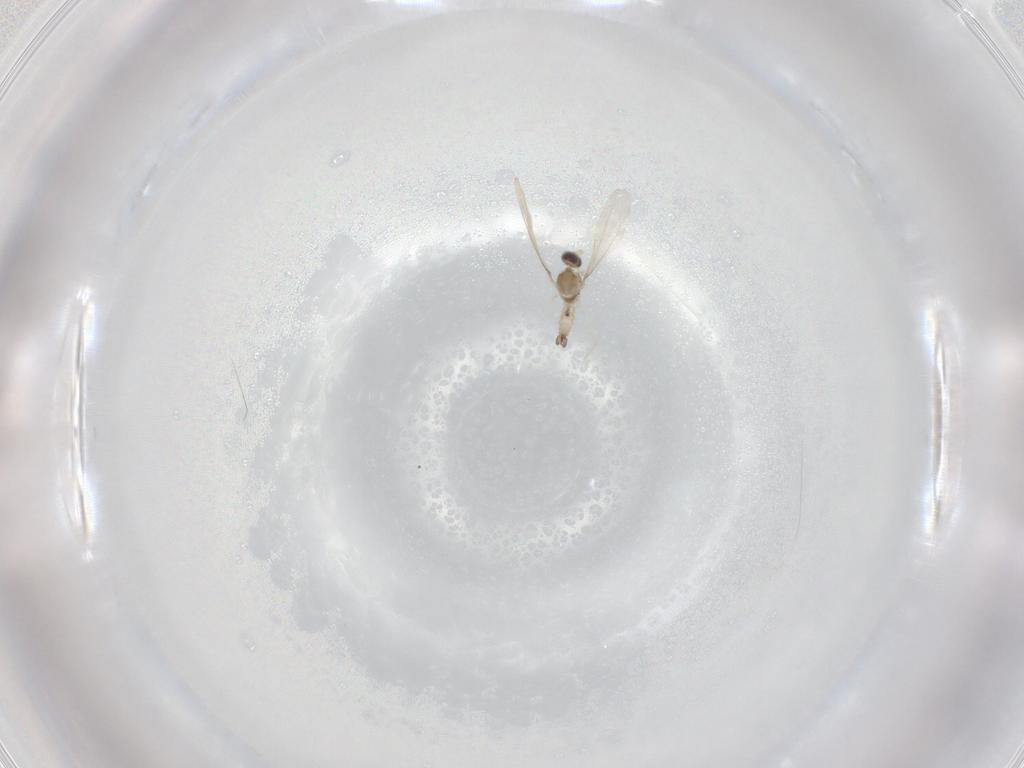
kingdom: Animalia
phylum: Arthropoda
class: Insecta
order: Diptera
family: Cecidomyiidae
